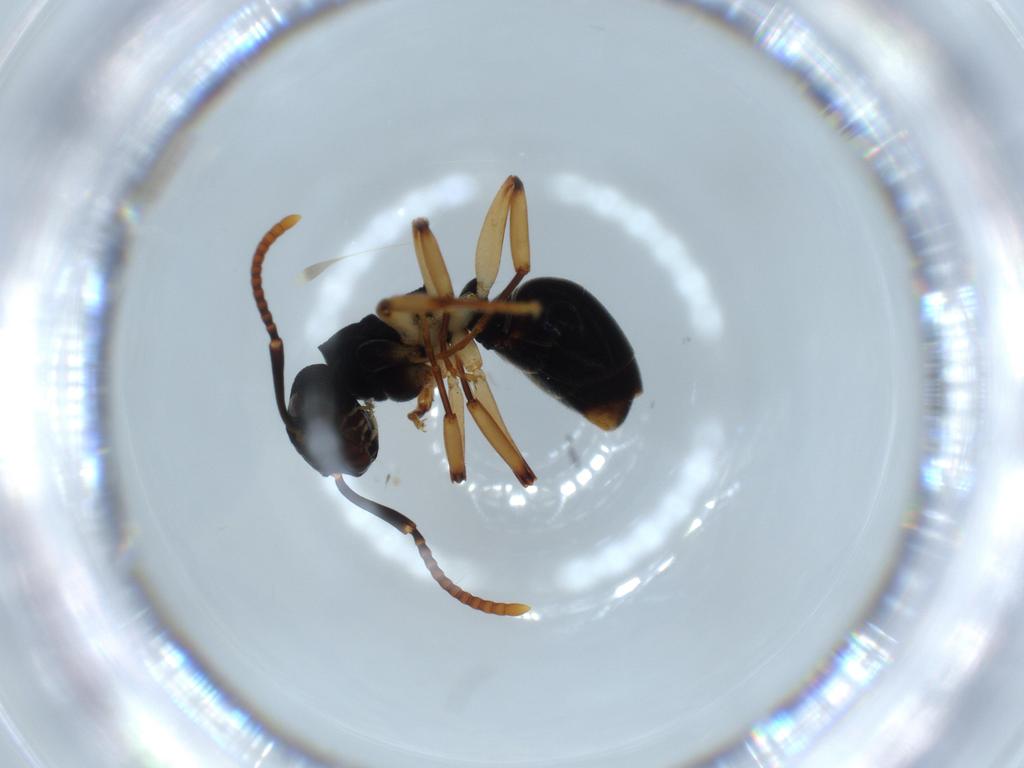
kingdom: Animalia
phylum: Arthropoda
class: Insecta
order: Hymenoptera
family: Formicidae
